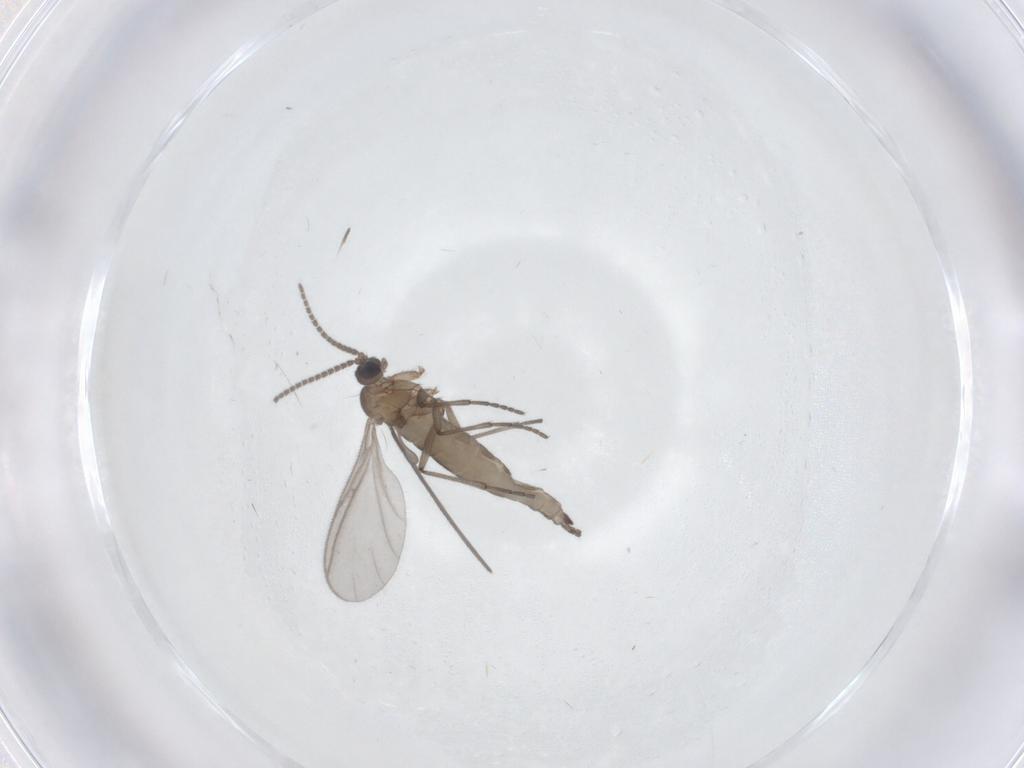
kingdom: Animalia
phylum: Arthropoda
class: Insecta
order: Diptera
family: Sciaridae
